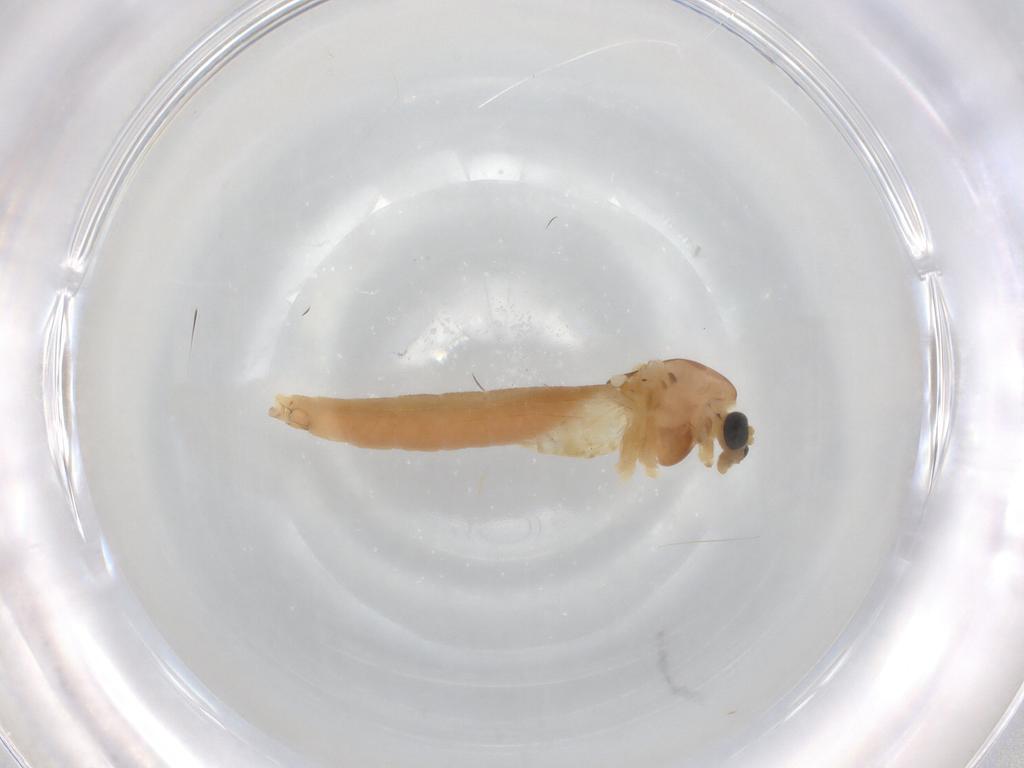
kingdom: Animalia
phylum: Arthropoda
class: Insecta
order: Diptera
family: Chironomidae
